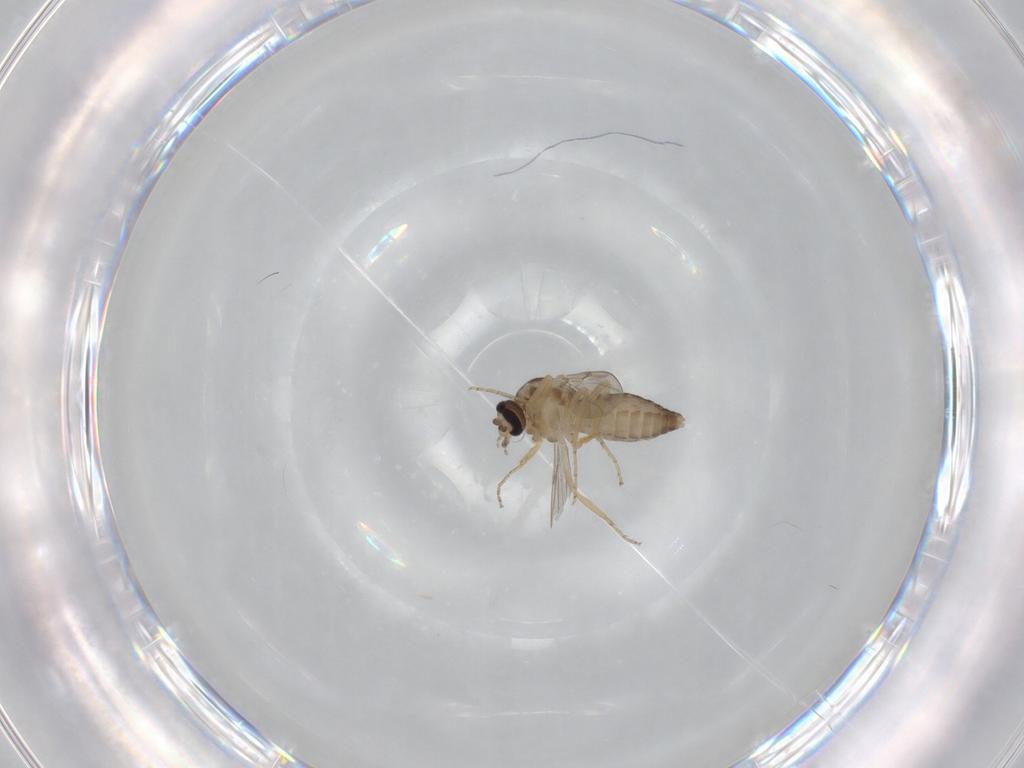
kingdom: Animalia
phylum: Arthropoda
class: Insecta
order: Diptera
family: Ceratopogonidae
